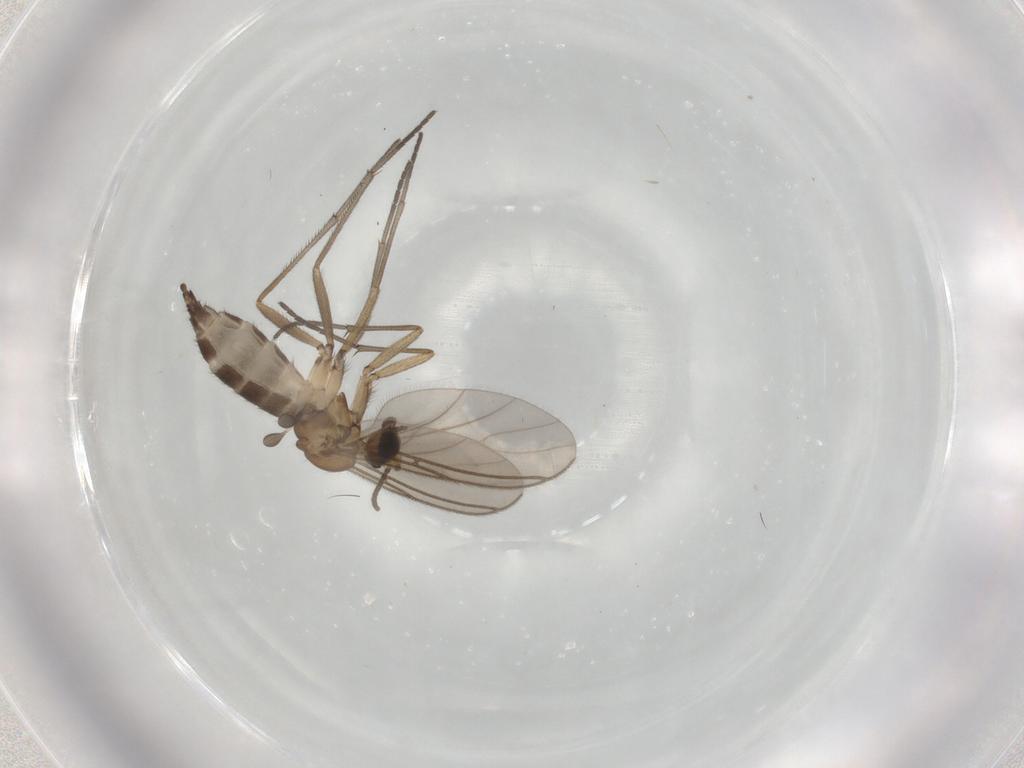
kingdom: Animalia
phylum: Arthropoda
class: Insecta
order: Diptera
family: Sciaridae
